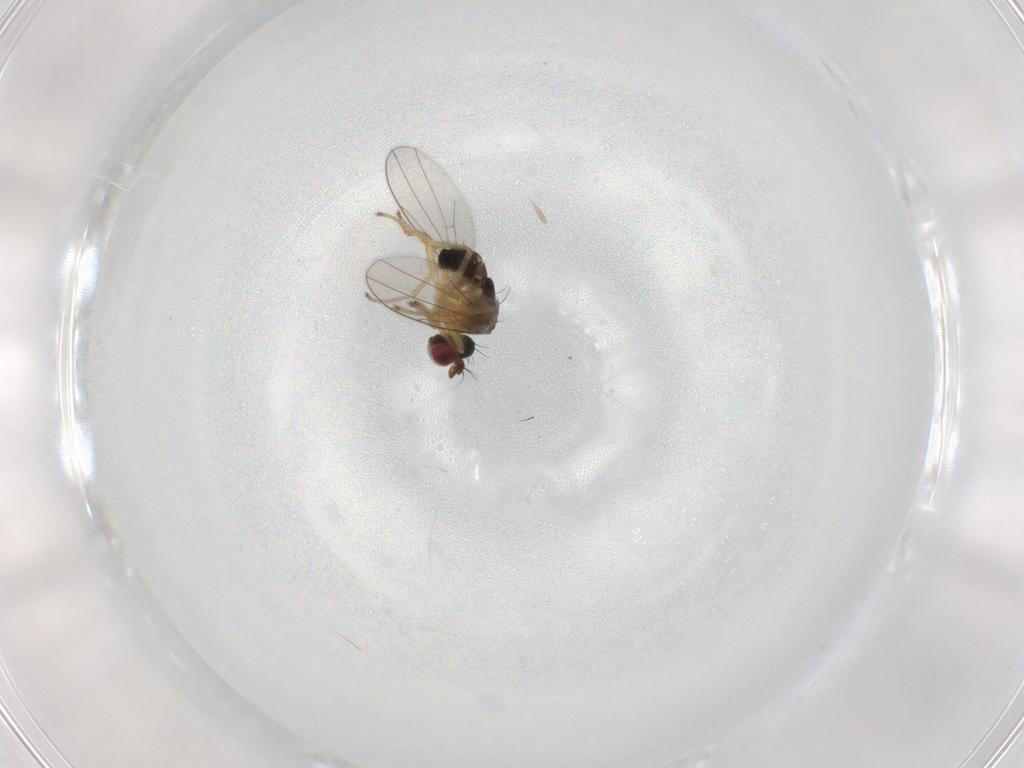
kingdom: Animalia
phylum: Arthropoda
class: Insecta
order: Diptera
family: Ephydridae
